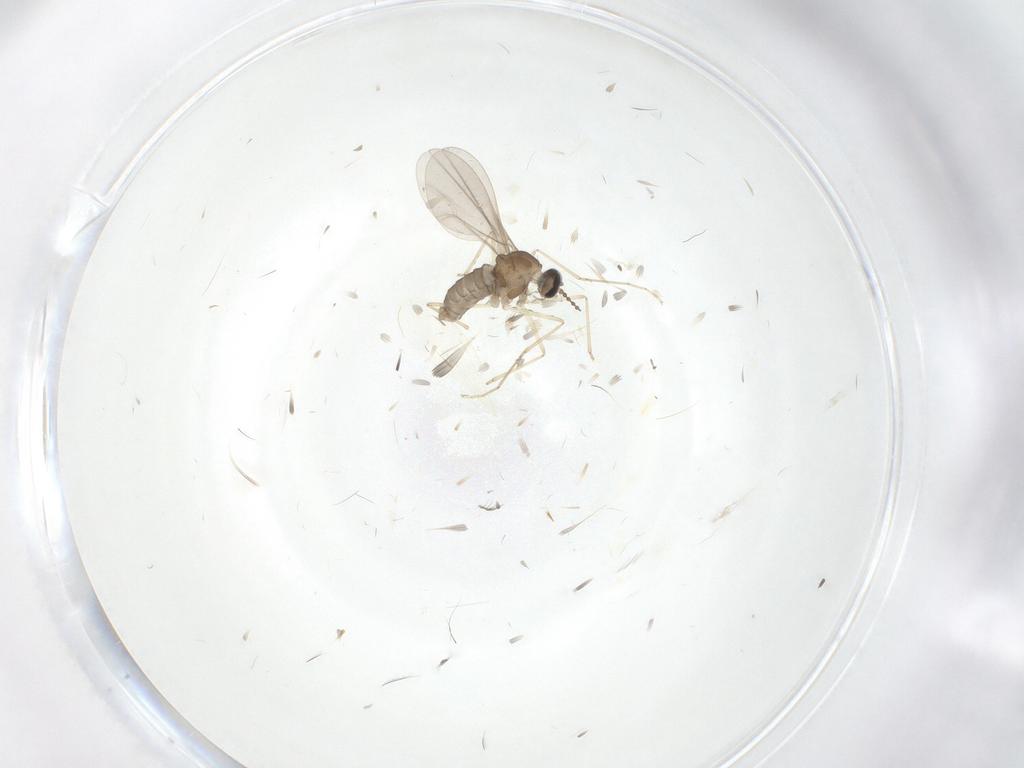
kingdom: Animalia
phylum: Arthropoda
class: Insecta
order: Diptera
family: Cecidomyiidae
